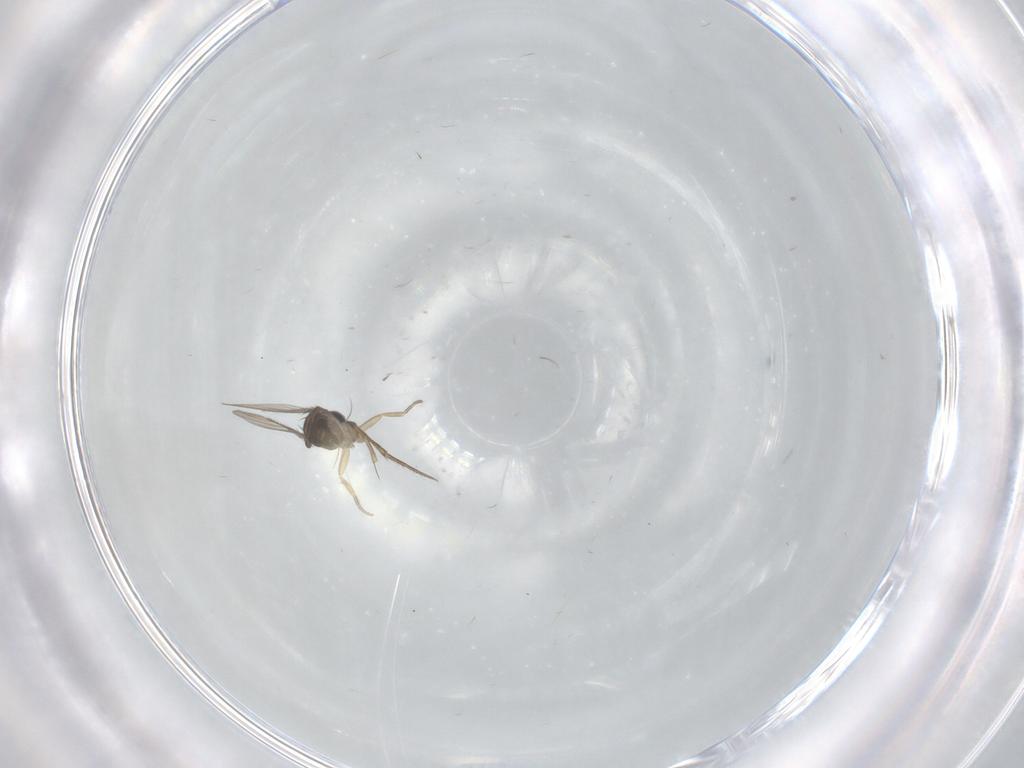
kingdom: Animalia
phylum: Arthropoda
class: Insecta
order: Diptera
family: Phoridae
